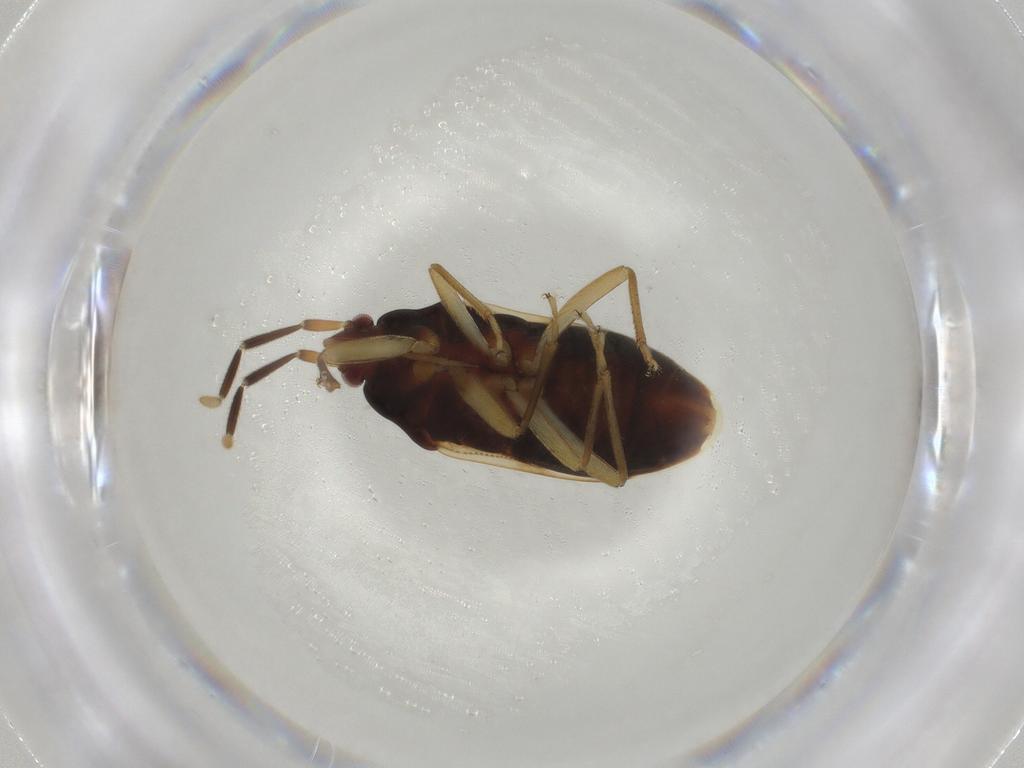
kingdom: Animalia
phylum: Arthropoda
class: Insecta
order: Hemiptera
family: Rhyparochromidae
